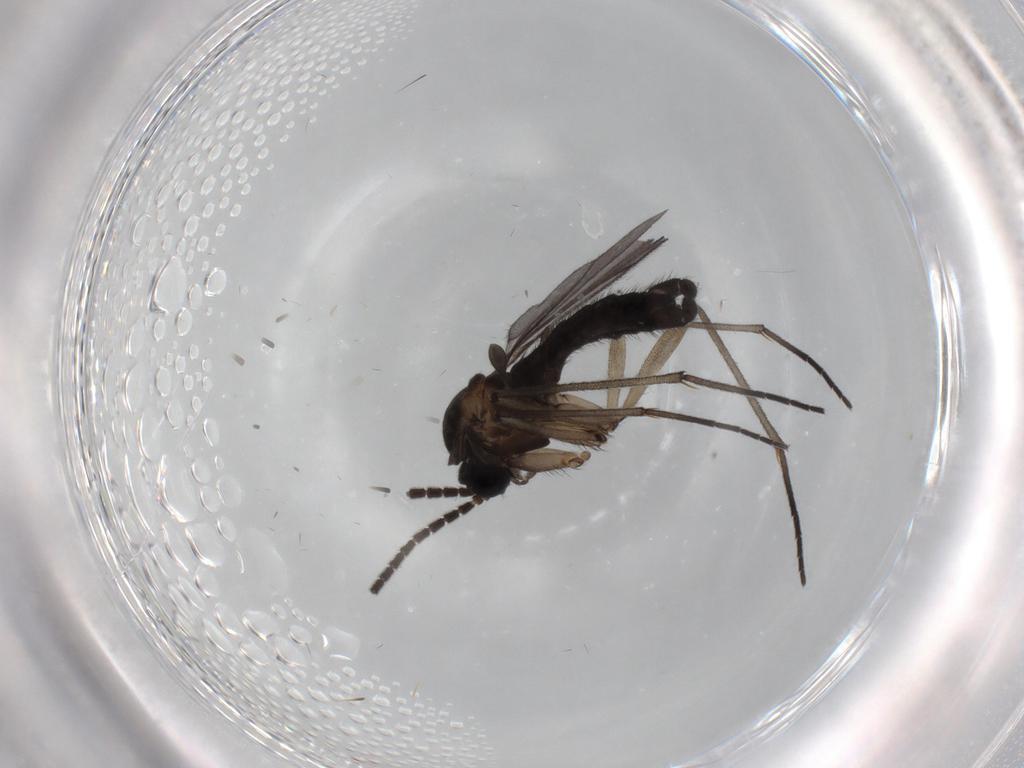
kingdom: Animalia
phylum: Arthropoda
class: Insecta
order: Diptera
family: Sciaridae
